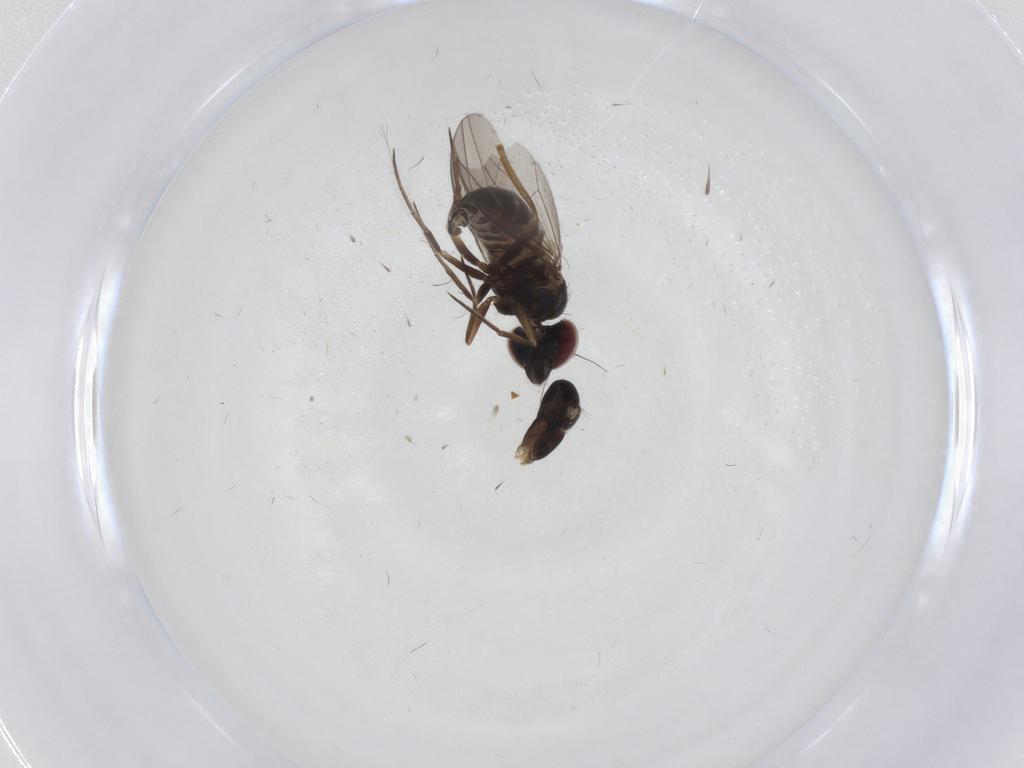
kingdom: Animalia
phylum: Arthropoda
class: Insecta
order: Diptera
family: Dolichopodidae
